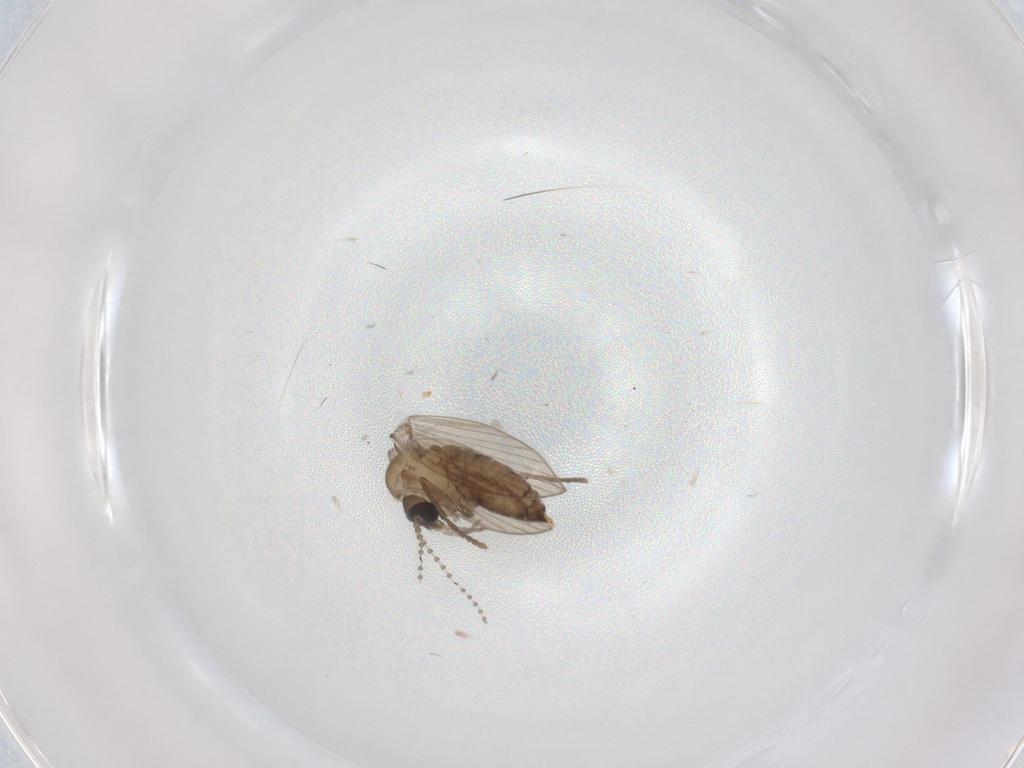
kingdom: Animalia
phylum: Arthropoda
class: Insecta
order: Diptera
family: Psychodidae
